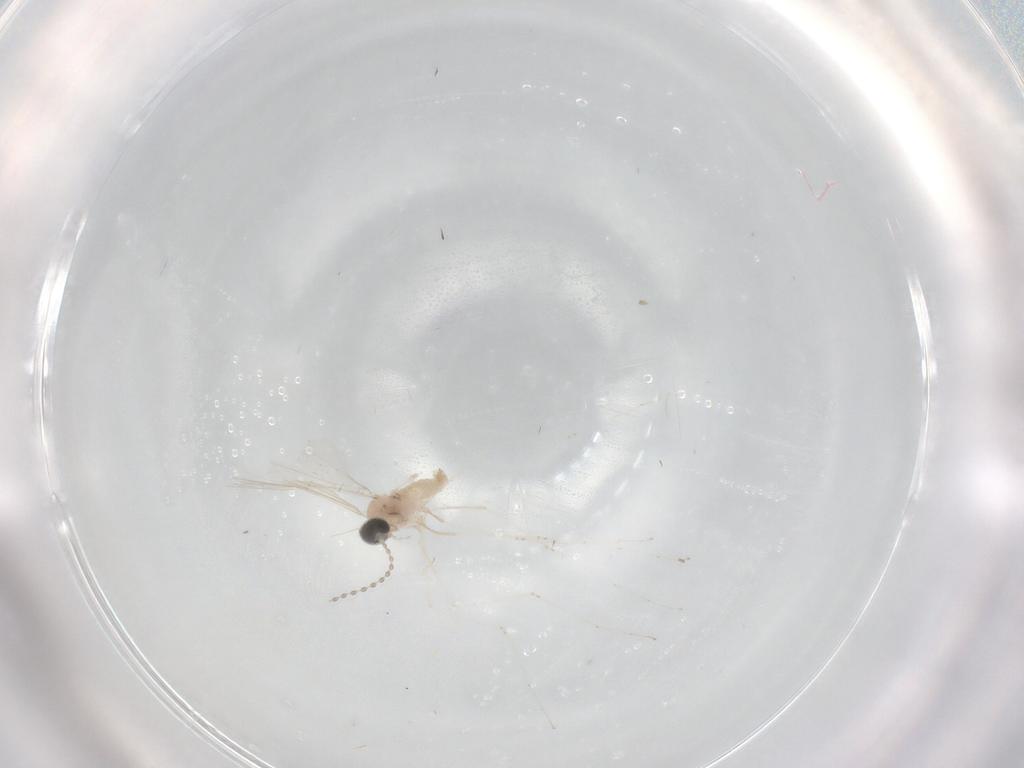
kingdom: Animalia
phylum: Arthropoda
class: Insecta
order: Diptera
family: Cecidomyiidae
